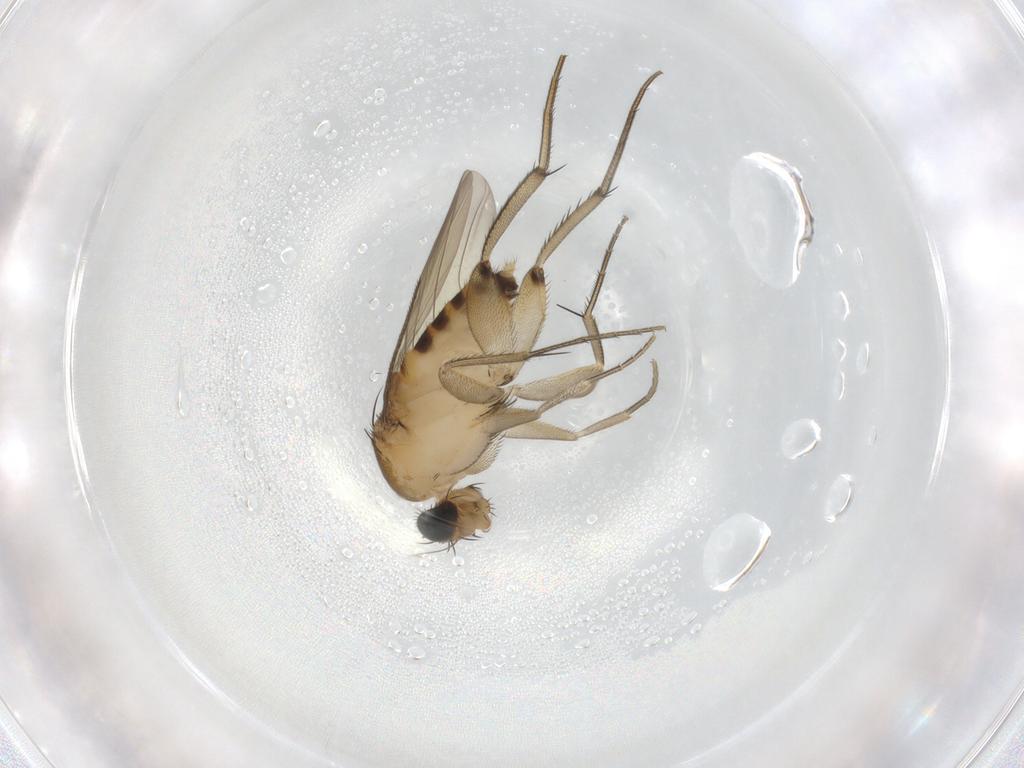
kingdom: Animalia
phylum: Arthropoda
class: Insecta
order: Diptera
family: Phoridae
